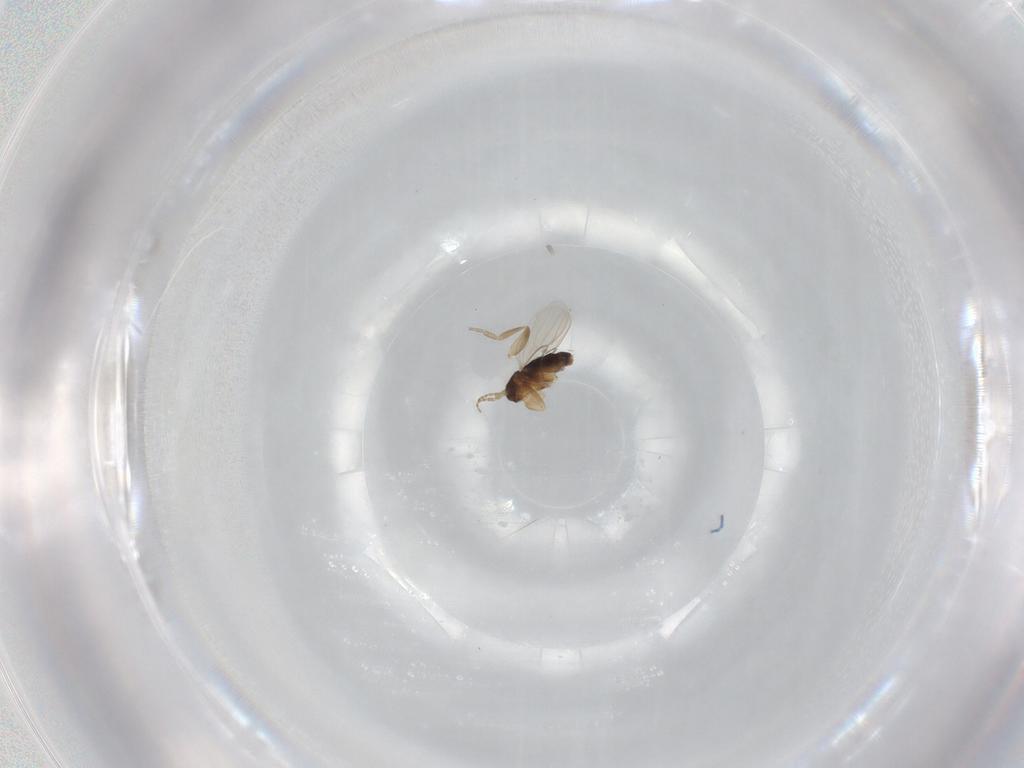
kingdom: Animalia
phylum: Arthropoda
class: Insecta
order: Diptera
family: Phoridae
